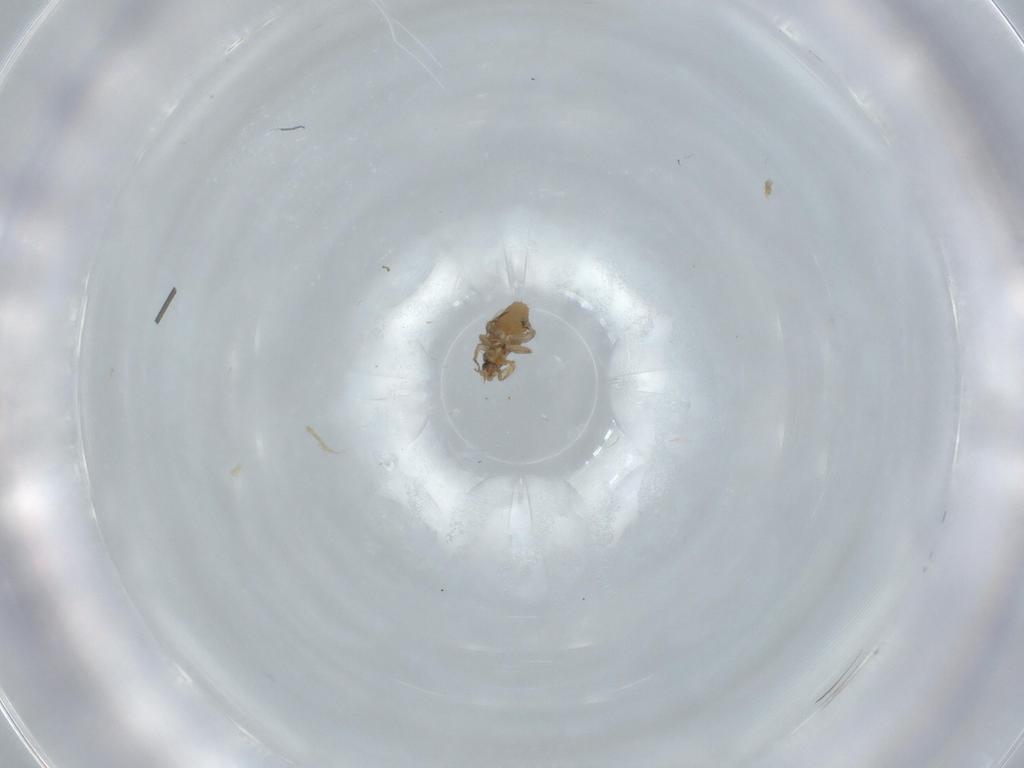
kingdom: Animalia
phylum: Arthropoda
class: Insecta
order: Diptera
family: Phoridae
